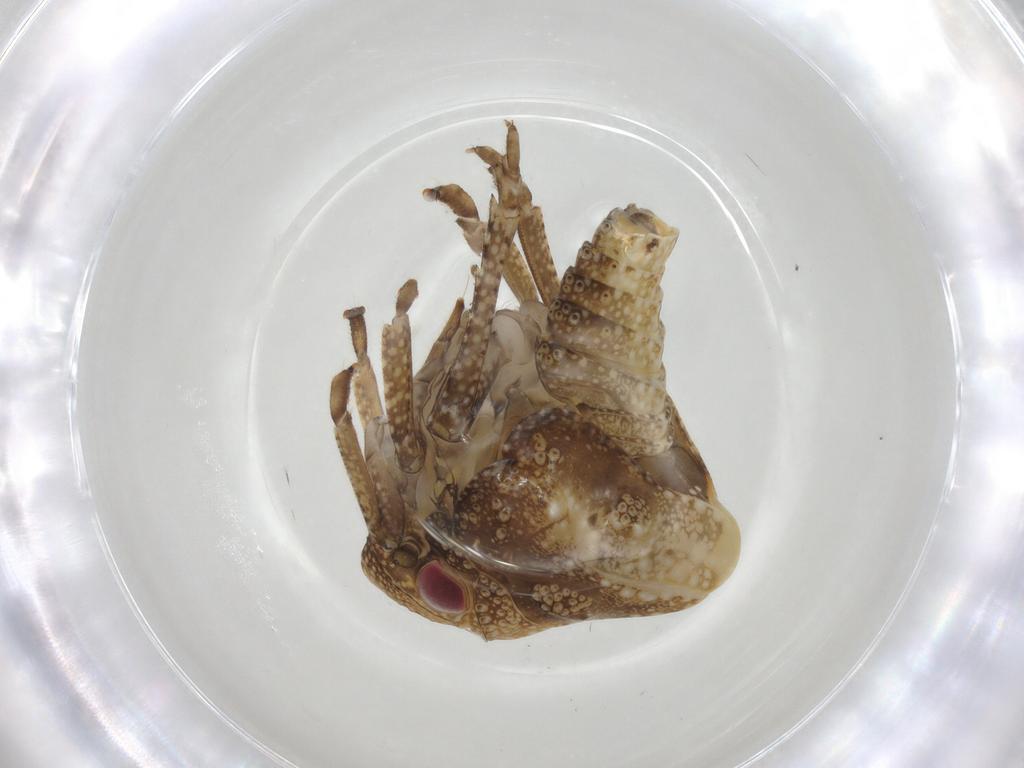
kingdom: Animalia
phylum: Arthropoda
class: Insecta
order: Hemiptera
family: Acanaloniidae
